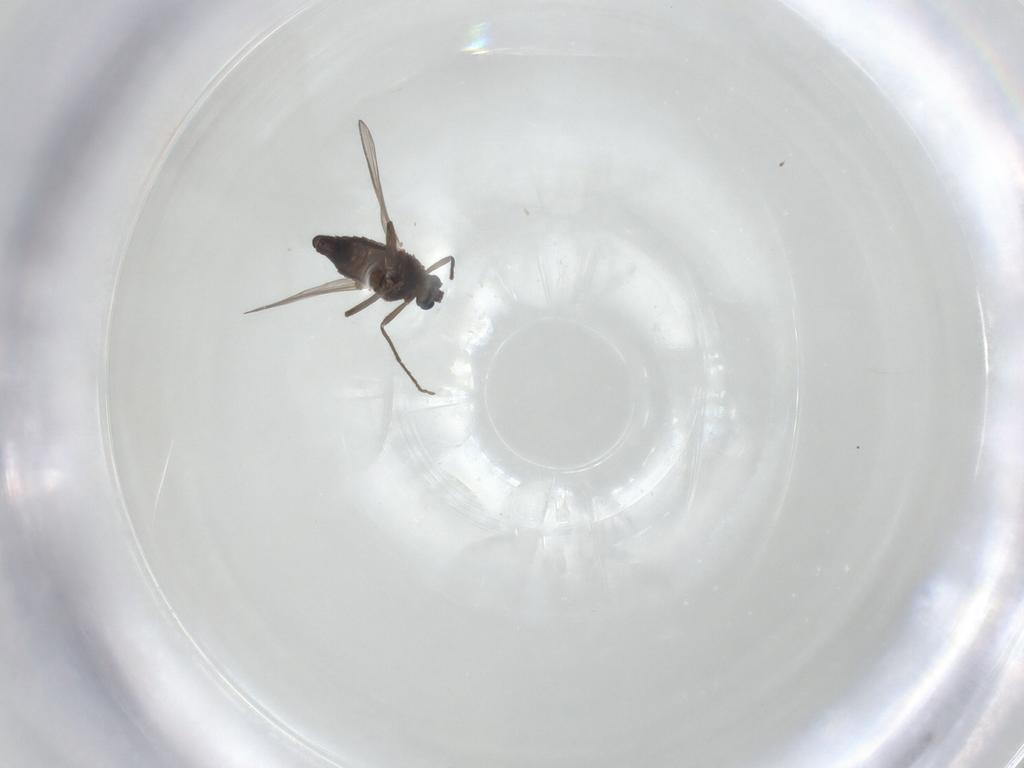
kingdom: Animalia
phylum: Arthropoda
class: Insecta
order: Diptera
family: Chironomidae
